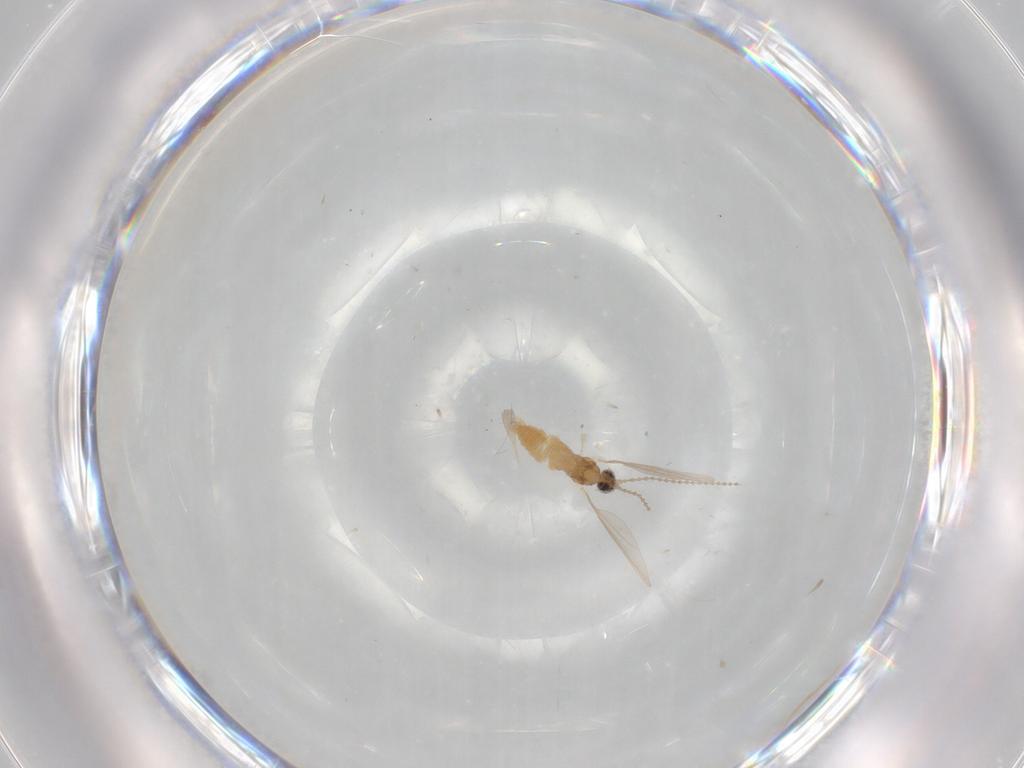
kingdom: Animalia
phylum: Arthropoda
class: Insecta
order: Diptera
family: Cecidomyiidae
